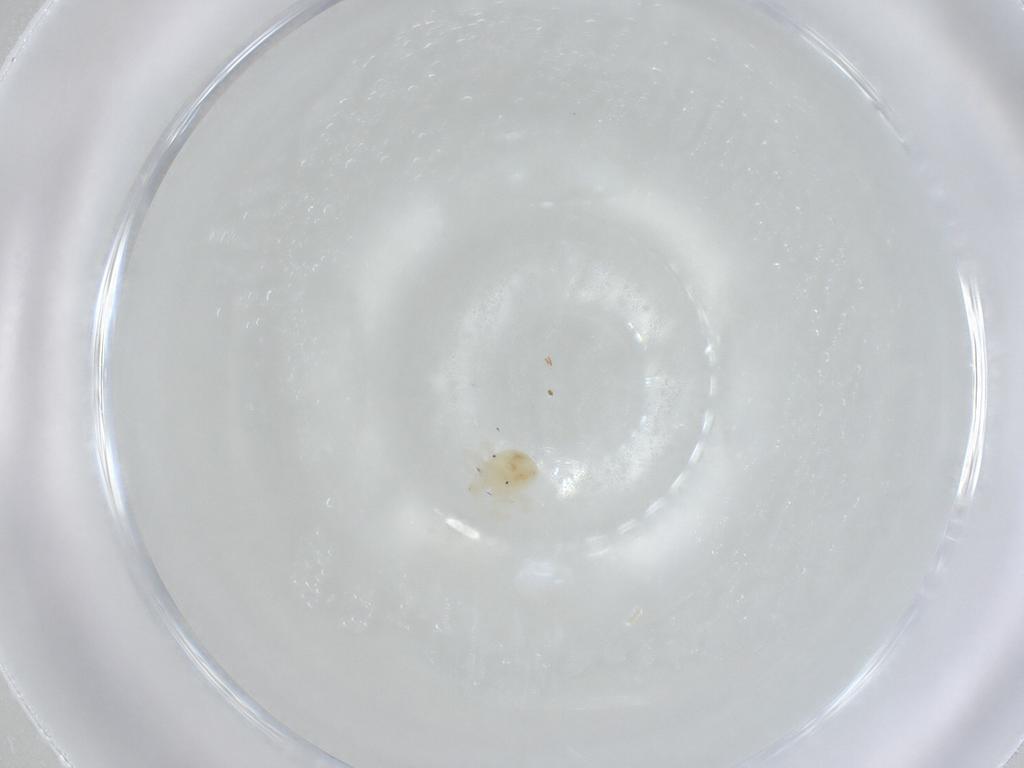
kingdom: Animalia
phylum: Arthropoda
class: Arachnida
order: Trombidiformes
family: Anystidae
